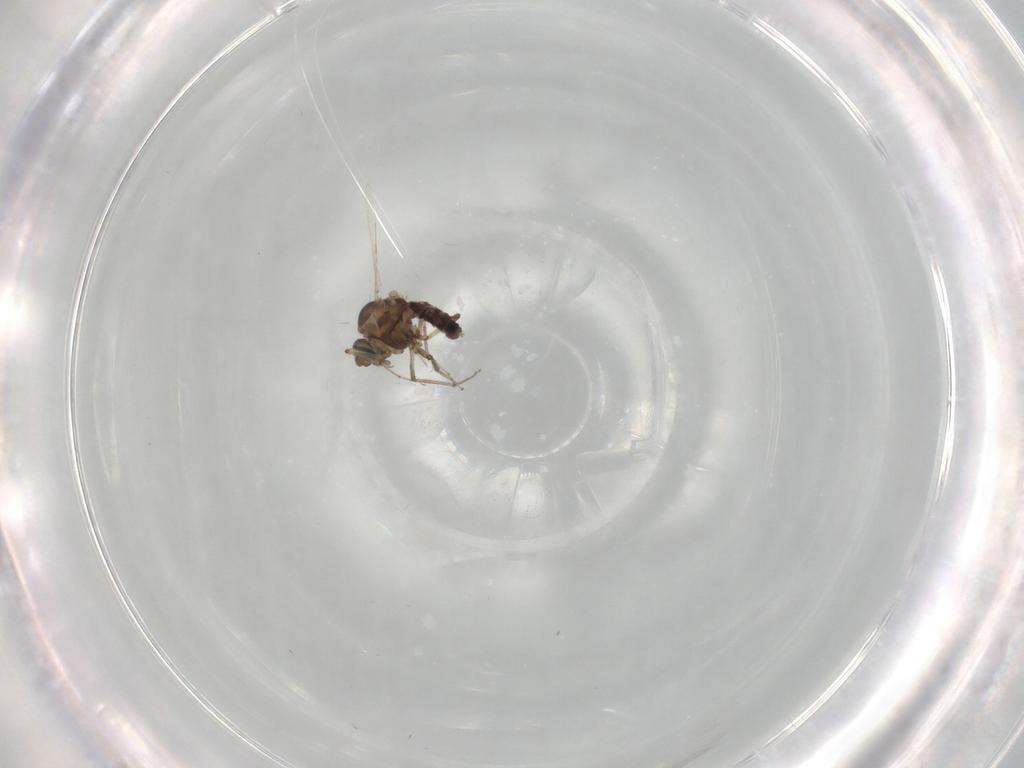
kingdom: Animalia
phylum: Arthropoda
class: Insecta
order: Diptera
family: Ceratopogonidae
